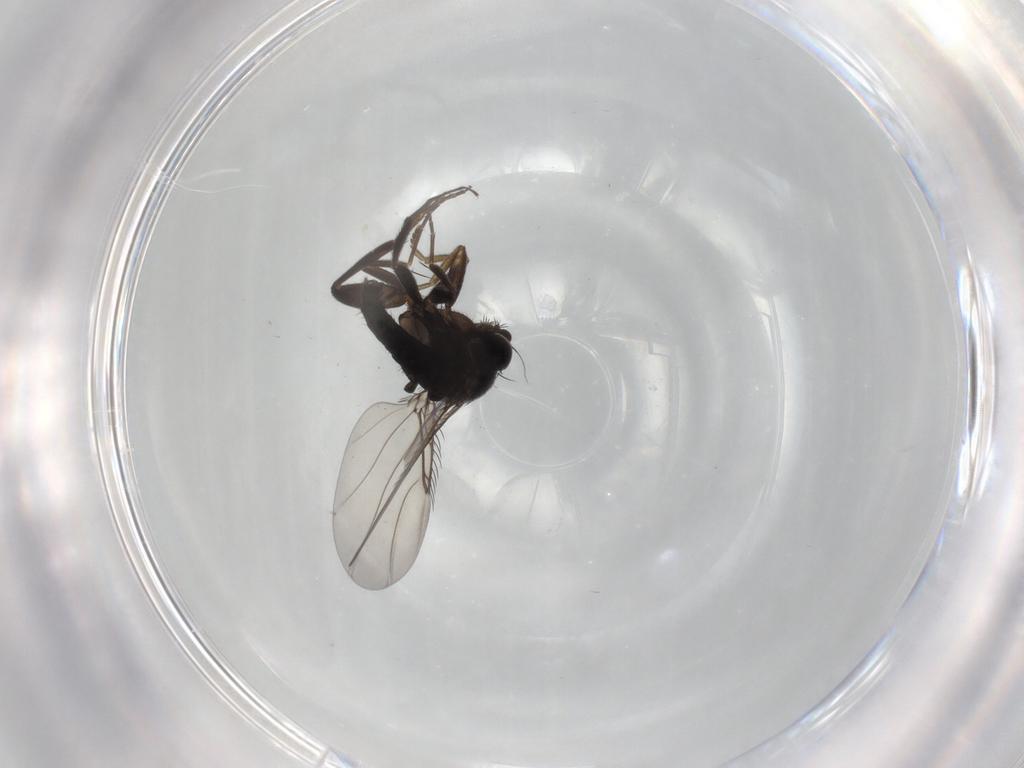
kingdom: Animalia
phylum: Arthropoda
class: Insecta
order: Diptera
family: Phoridae
